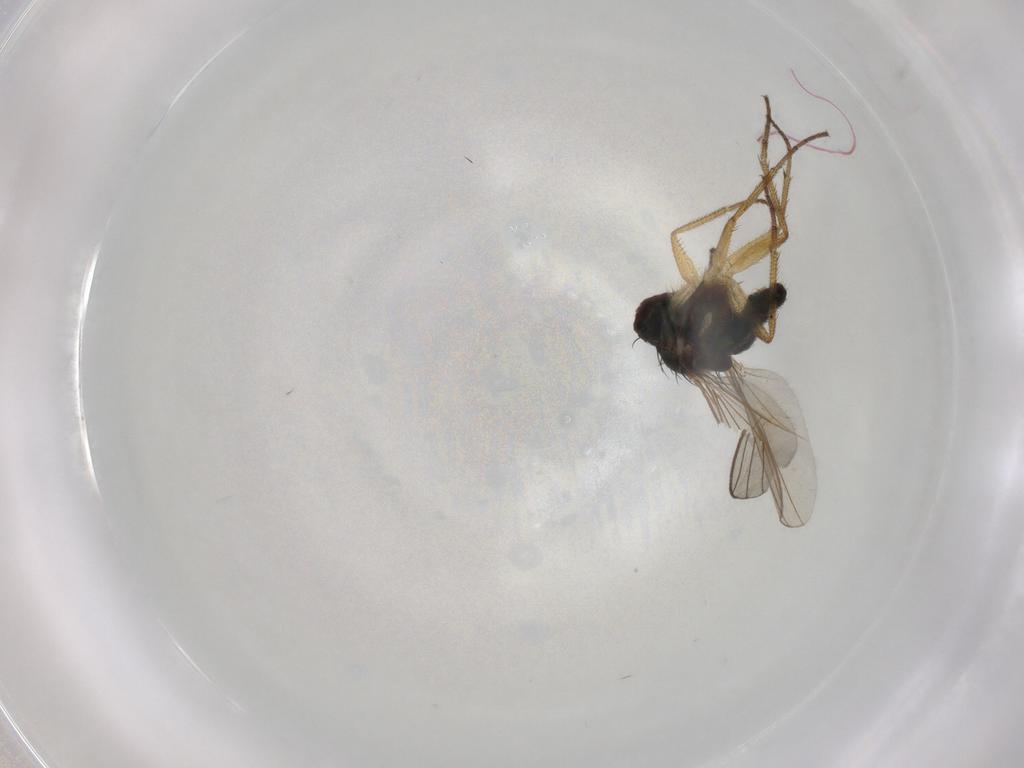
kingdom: Animalia
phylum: Arthropoda
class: Insecta
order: Diptera
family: Dolichopodidae
